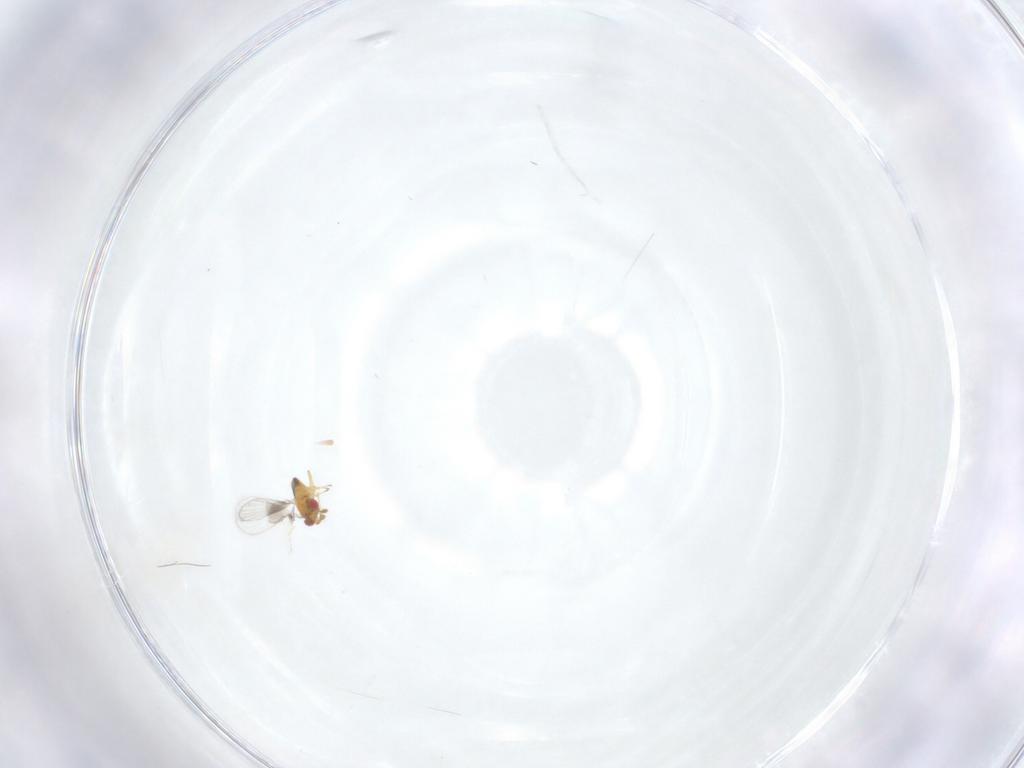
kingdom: Animalia
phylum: Arthropoda
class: Insecta
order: Hymenoptera
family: Trichogrammatidae
